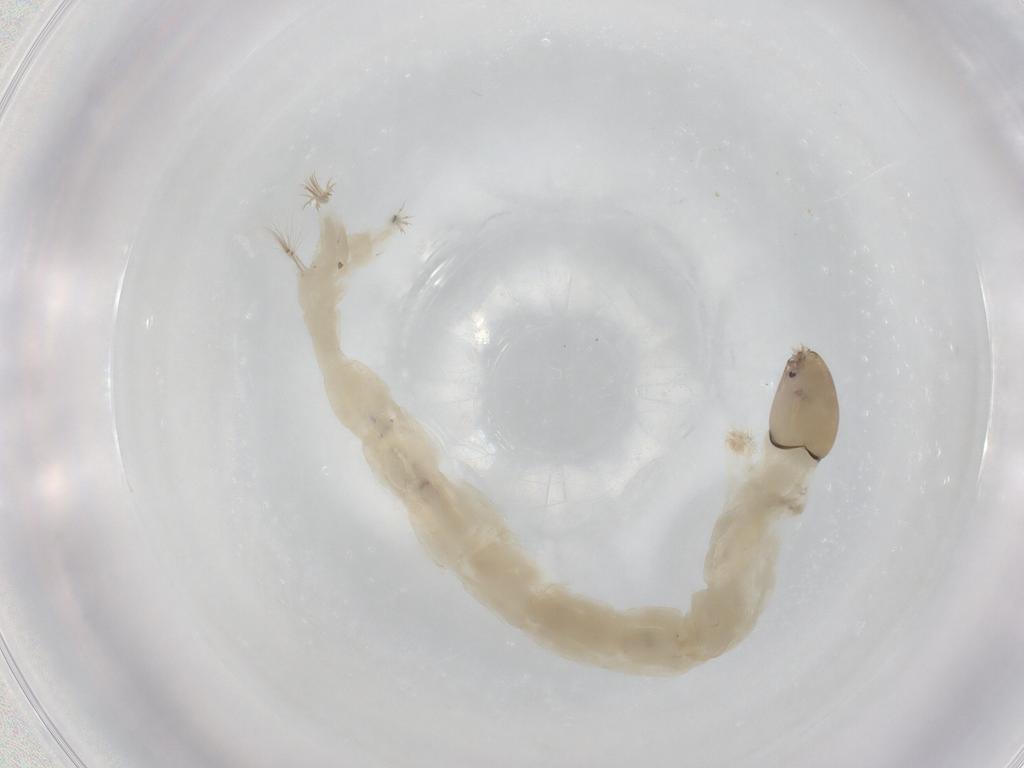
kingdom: Animalia
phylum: Arthropoda
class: Insecta
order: Diptera
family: Chironomidae
